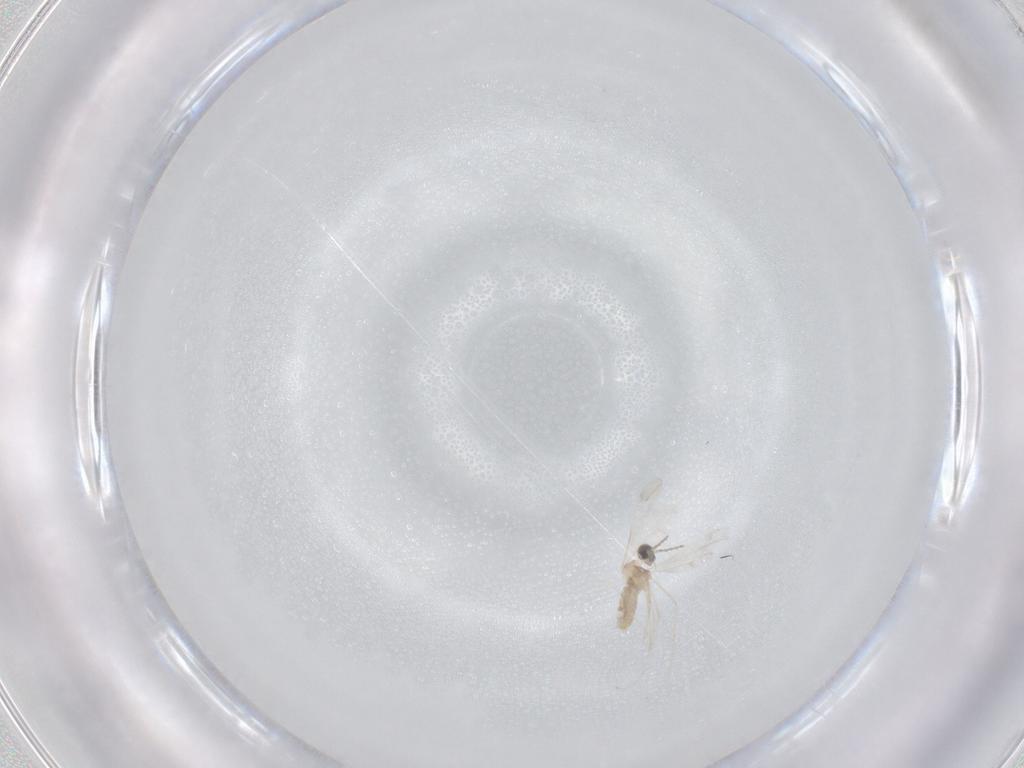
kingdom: Animalia
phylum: Arthropoda
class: Insecta
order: Diptera
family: Cecidomyiidae
